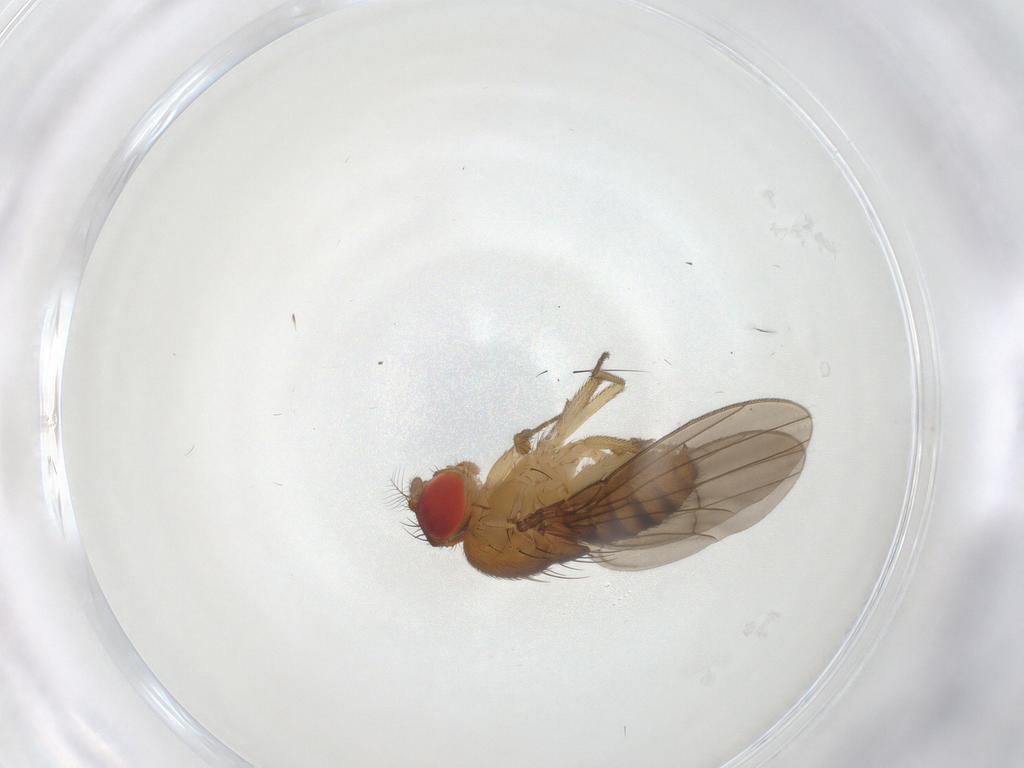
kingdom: Animalia
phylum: Arthropoda
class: Insecta
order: Diptera
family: Drosophilidae
